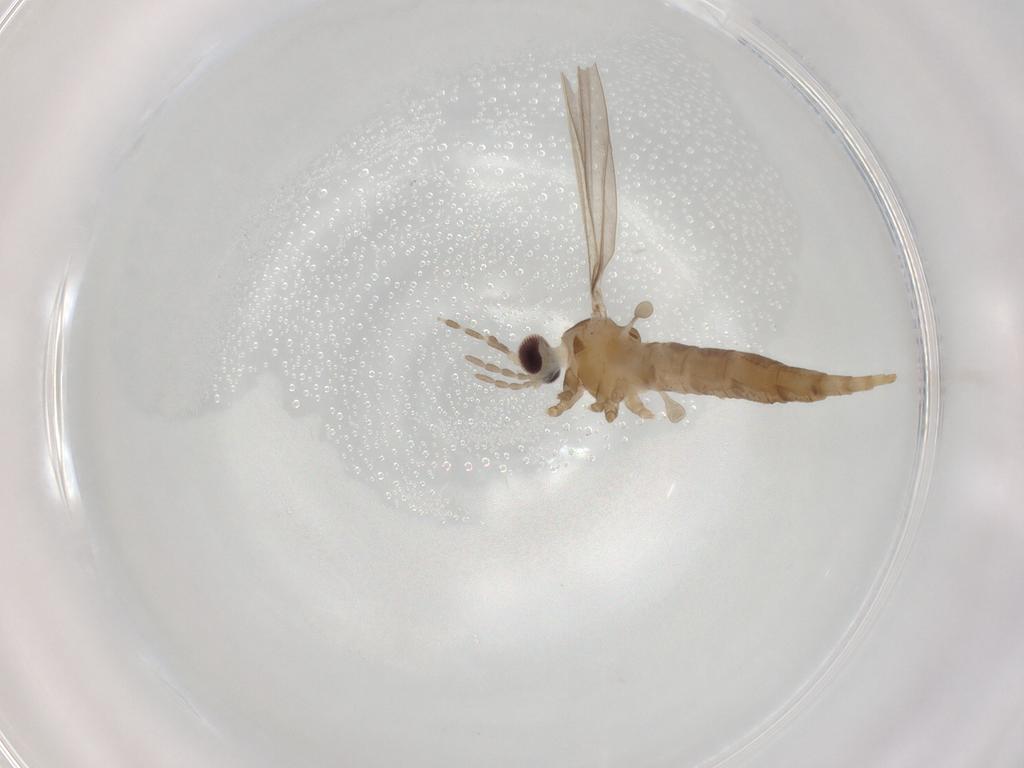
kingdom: Animalia
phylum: Arthropoda
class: Insecta
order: Diptera
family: Cecidomyiidae
